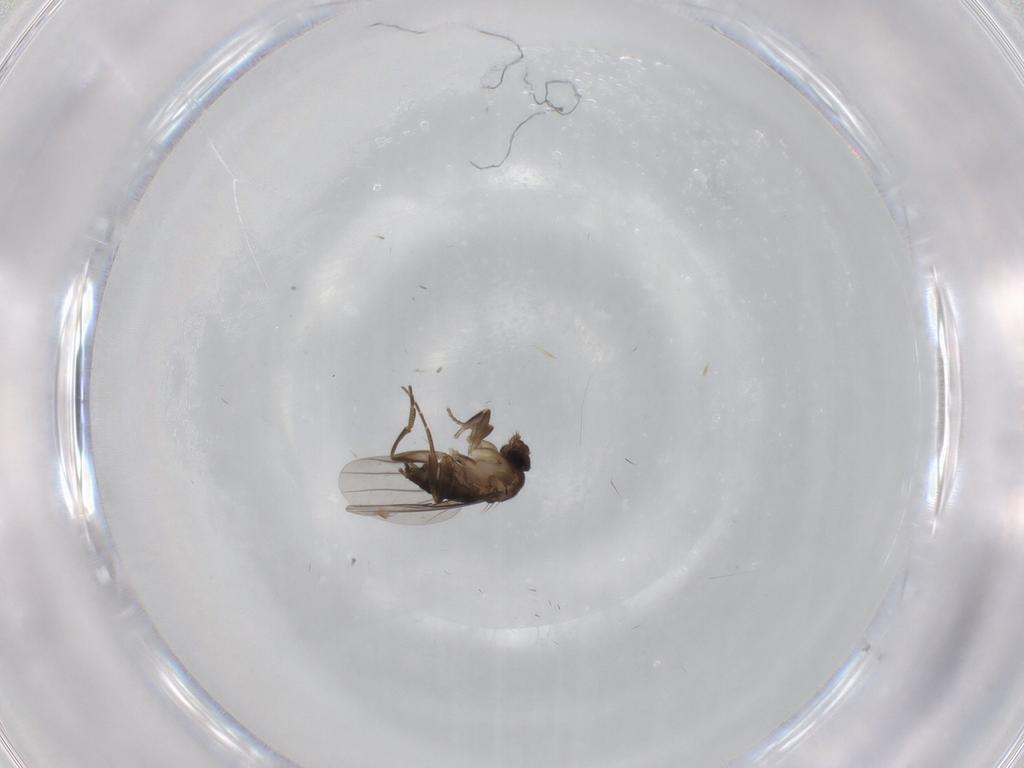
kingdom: Animalia
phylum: Arthropoda
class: Insecta
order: Diptera
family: Phoridae
